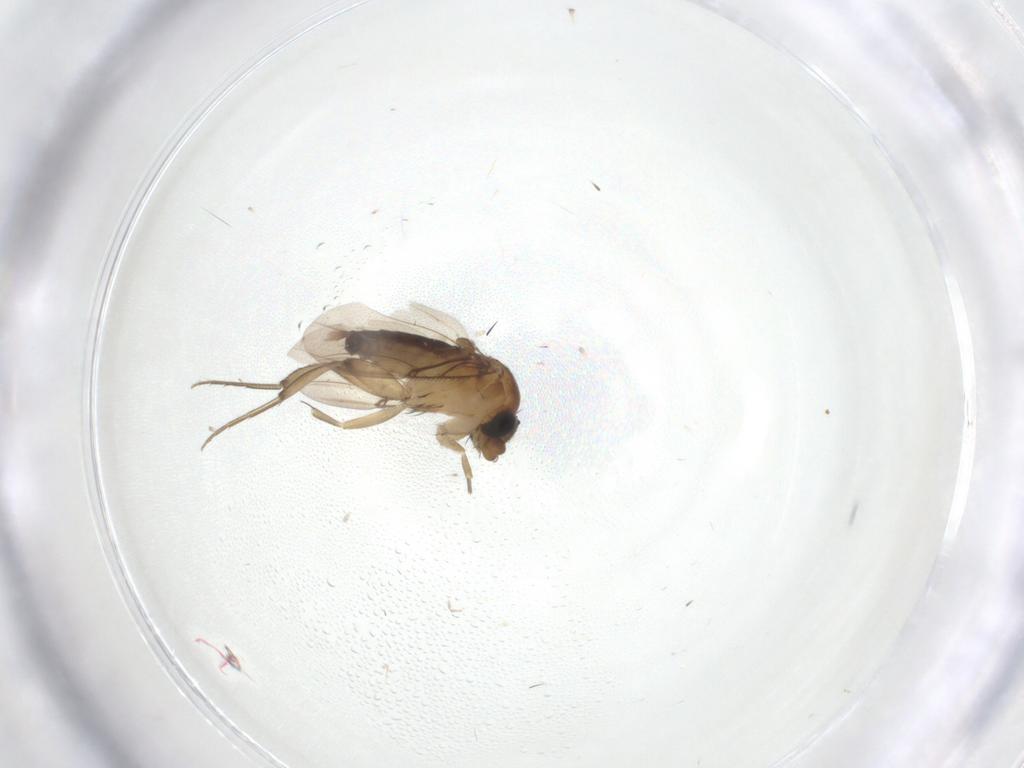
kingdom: Animalia
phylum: Arthropoda
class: Insecta
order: Diptera
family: Phoridae
